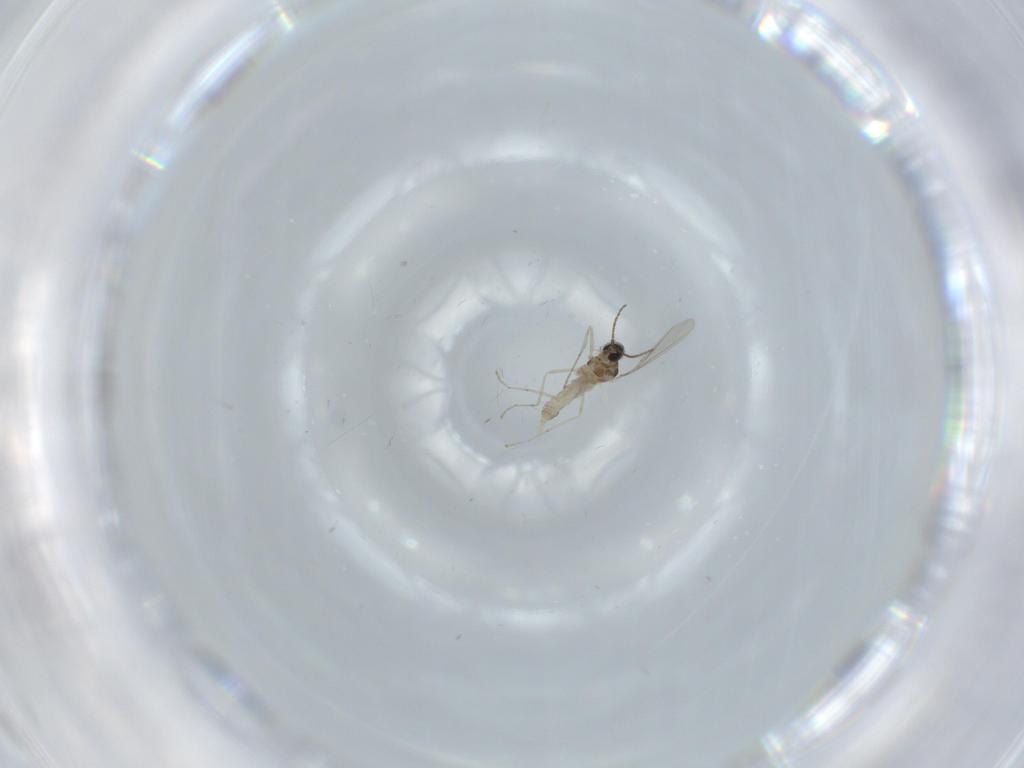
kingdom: Animalia
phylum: Arthropoda
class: Insecta
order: Diptera
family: Cecidomyiidae
